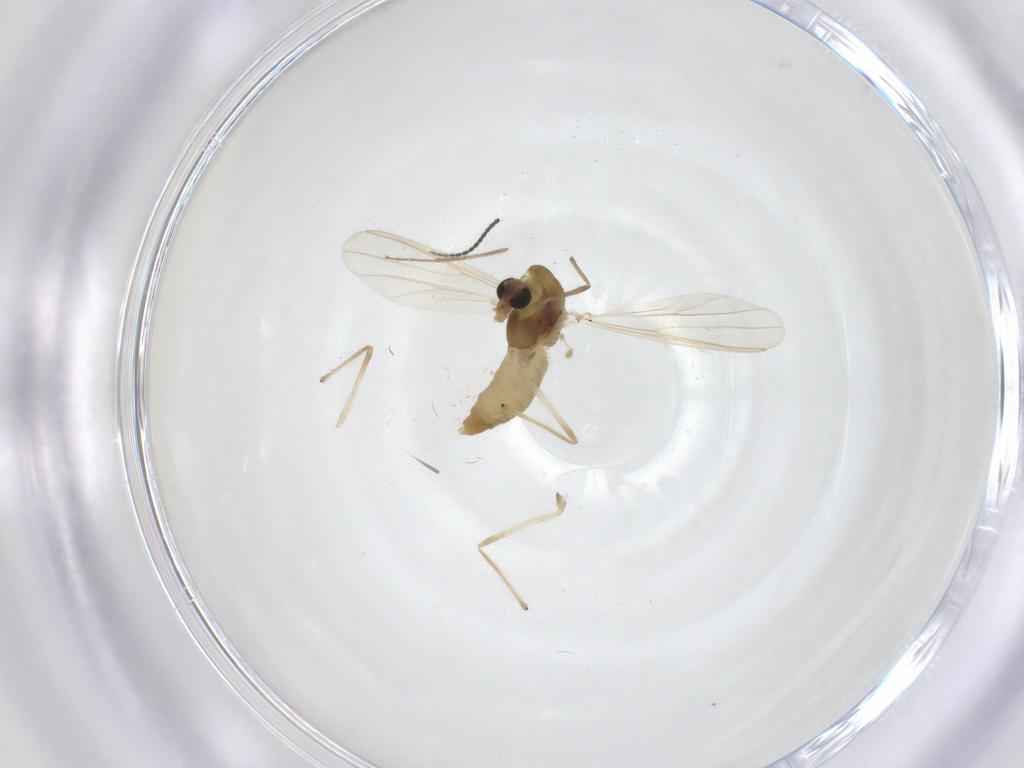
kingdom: Animalia
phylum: Arthropoda
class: Insecta
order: Diptera
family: Chironomidae
